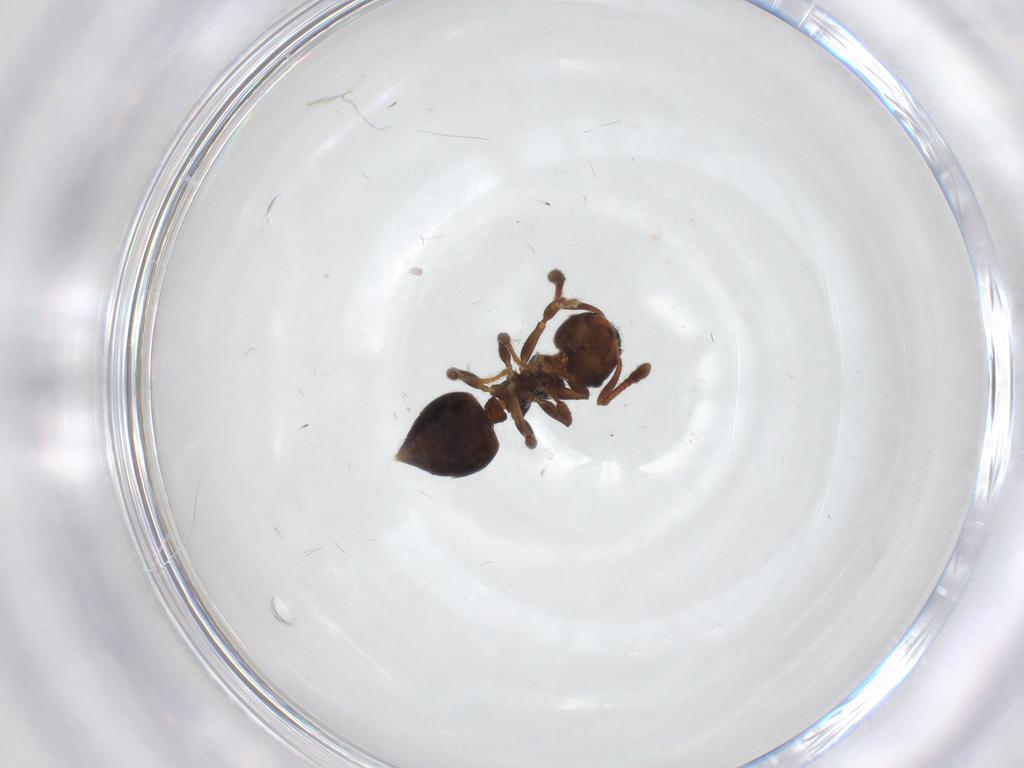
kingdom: Animalia
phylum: Arthropoda
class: Insecta
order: Hymenoptera
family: Formicidae
